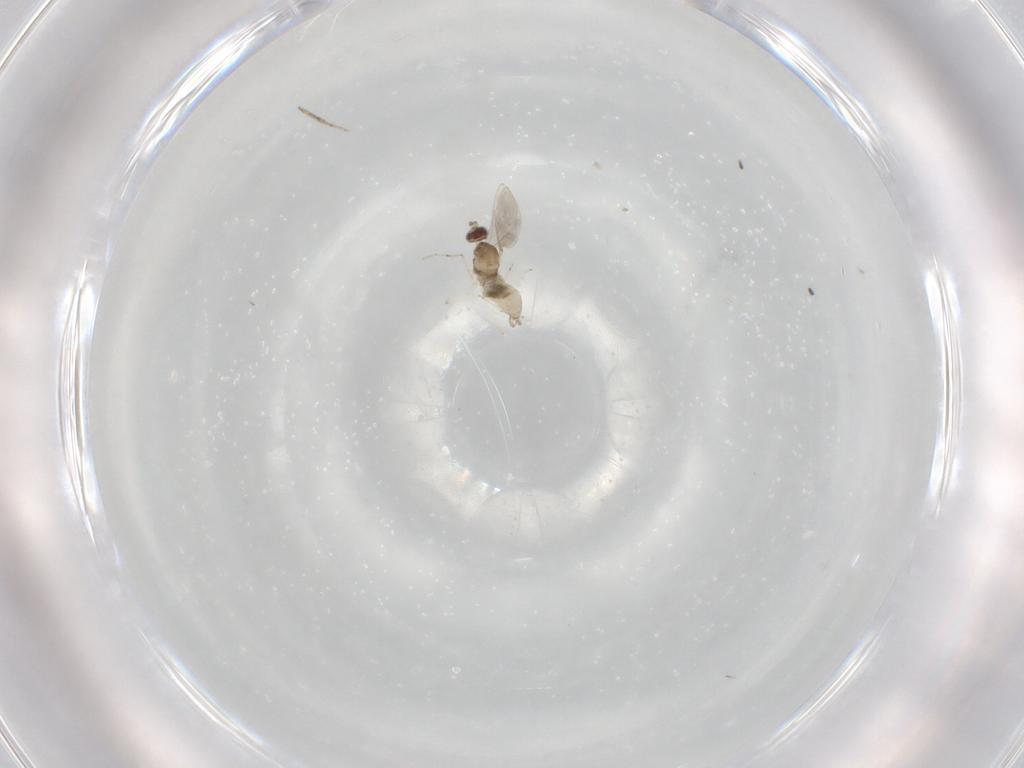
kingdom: Animalia
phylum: Arthropoda
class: Insecta
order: Diptera
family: Cecidomyiidae
